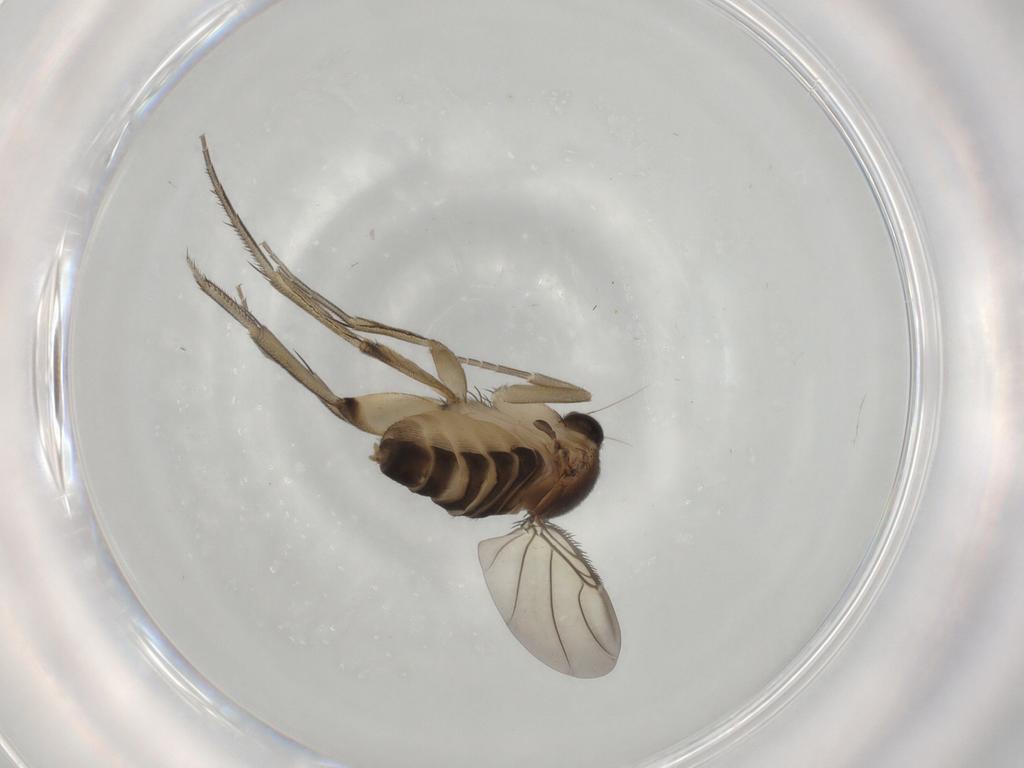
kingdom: Animalia
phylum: Arthropoda
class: Insecta
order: Diptera
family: Phoridae
